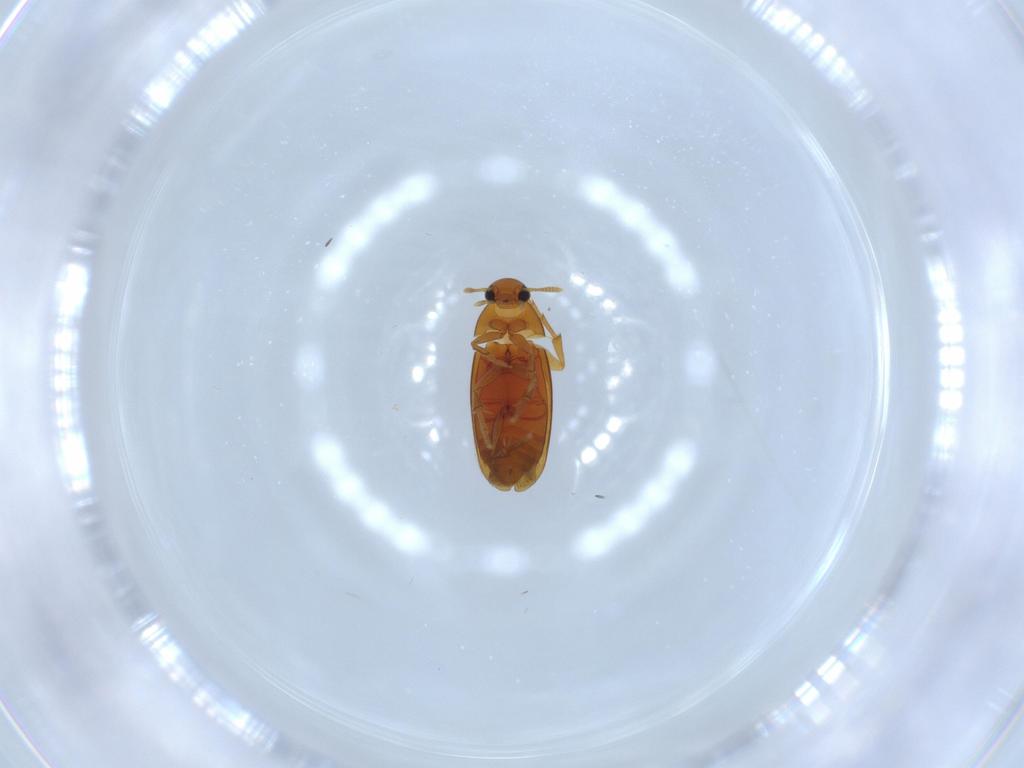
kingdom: Animalia
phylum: Arthropoda
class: Insecta
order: Coleoptera
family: Scraptiidae
